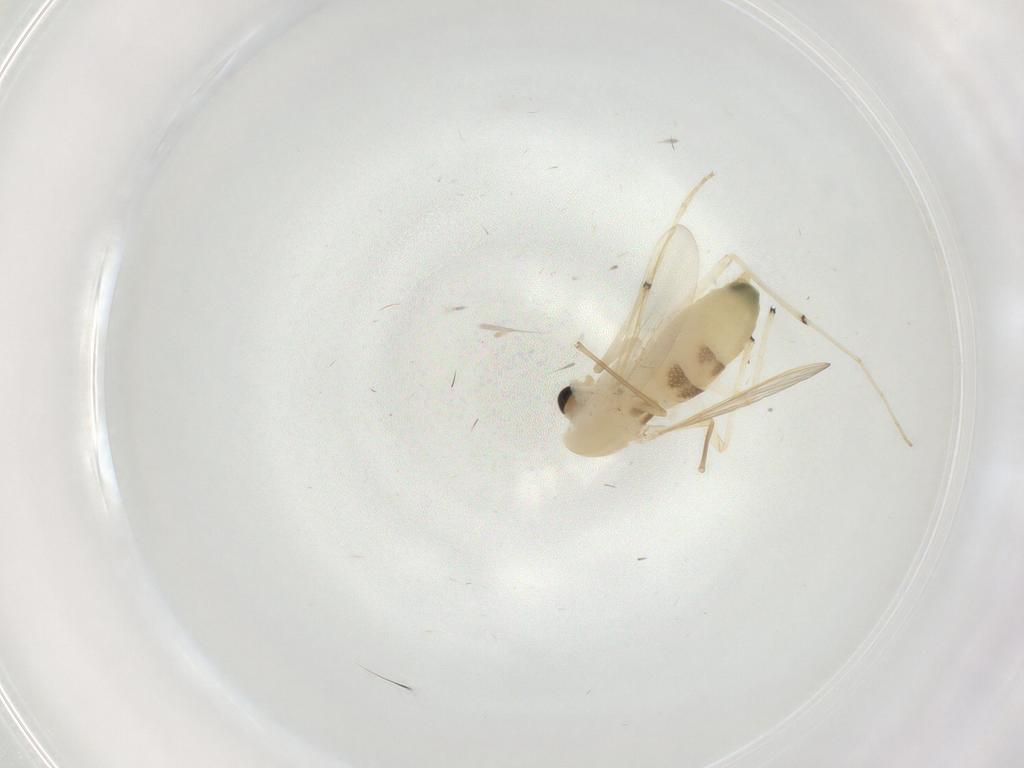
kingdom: Animalia
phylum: Arthropoda
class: Insecta
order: Diptera
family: Chironomidae
